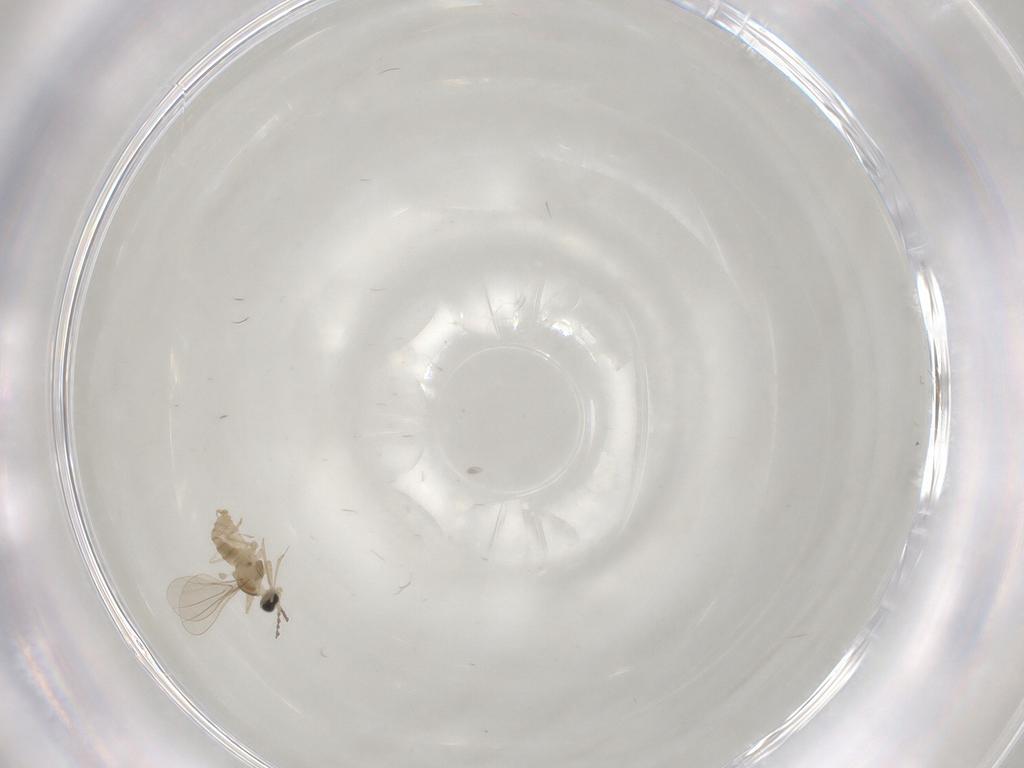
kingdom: Animalia
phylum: Arthropoda
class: Insecta
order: Diptera
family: Cecidomyiidae
